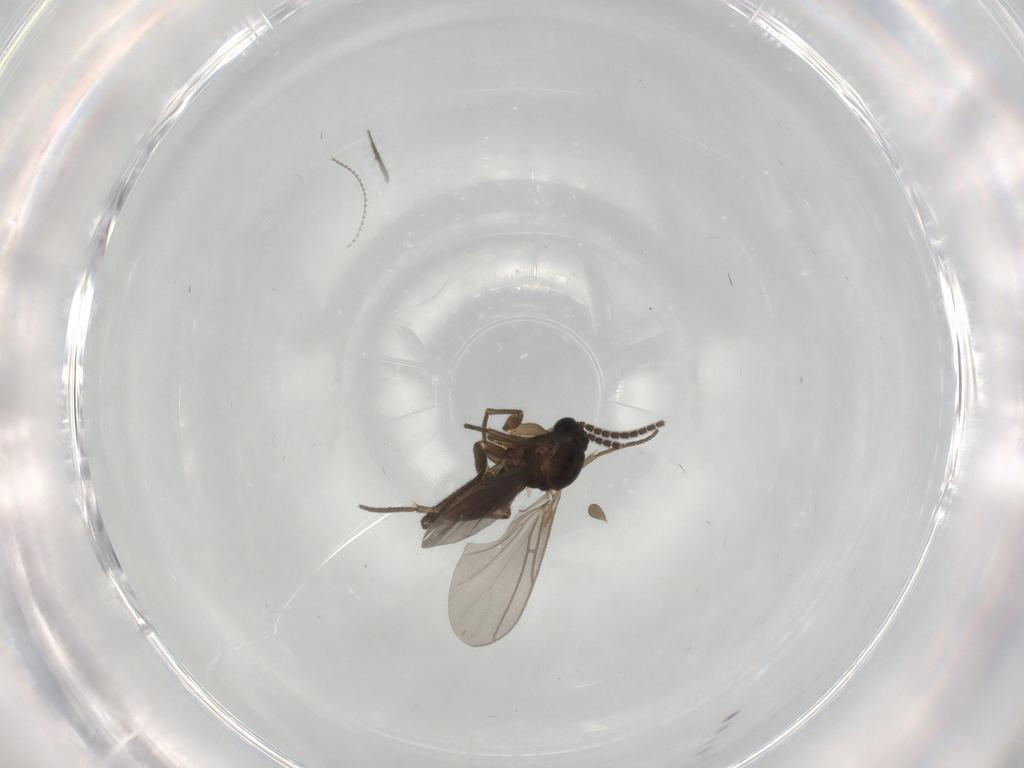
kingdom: Animalia
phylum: Arthropoda
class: Insecta
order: Diptera
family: Sciaridae
